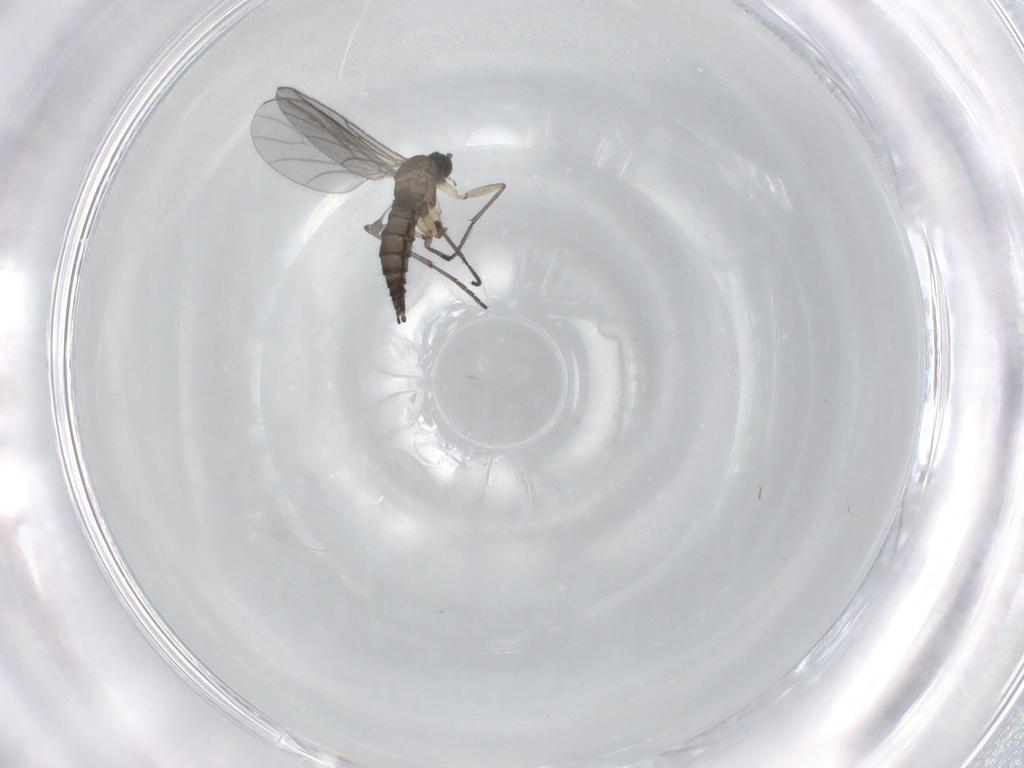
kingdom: Animalia
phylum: Arthropoda
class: Insecta
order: Diptera
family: Sciaridae
